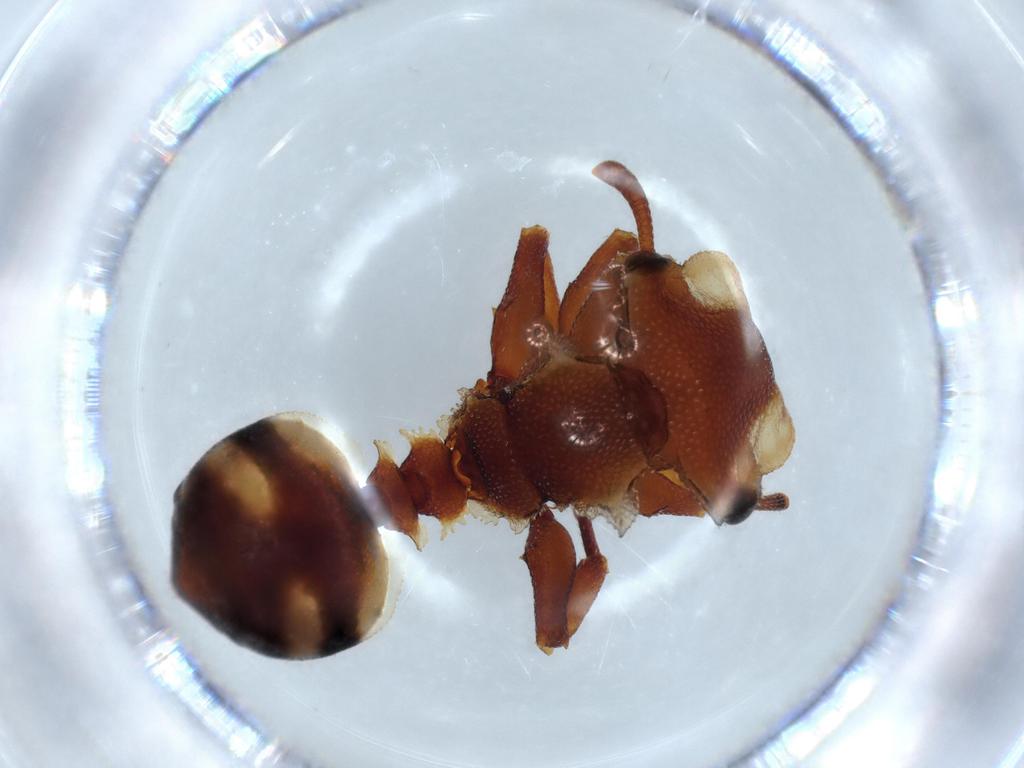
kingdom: Animalia
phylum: Arthropoda
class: Insecta
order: Hymenoptera
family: Formicidae
